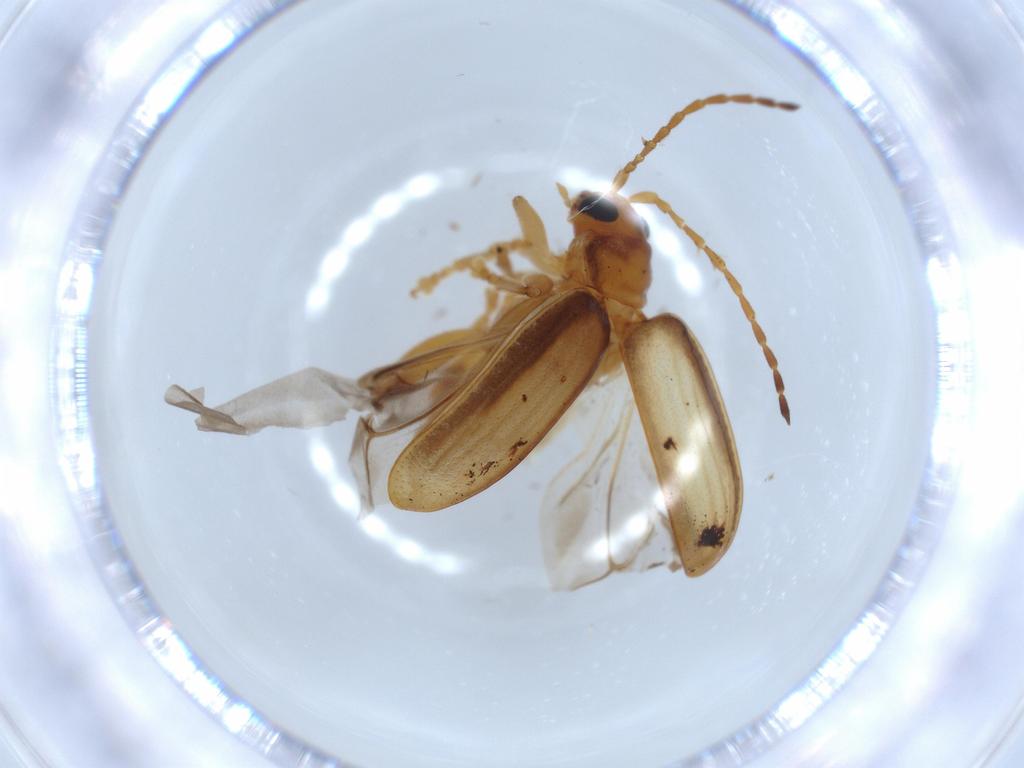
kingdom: Animalia
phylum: Arthropoda
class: Insecta
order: Coleoptera
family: Chrysomelidae
